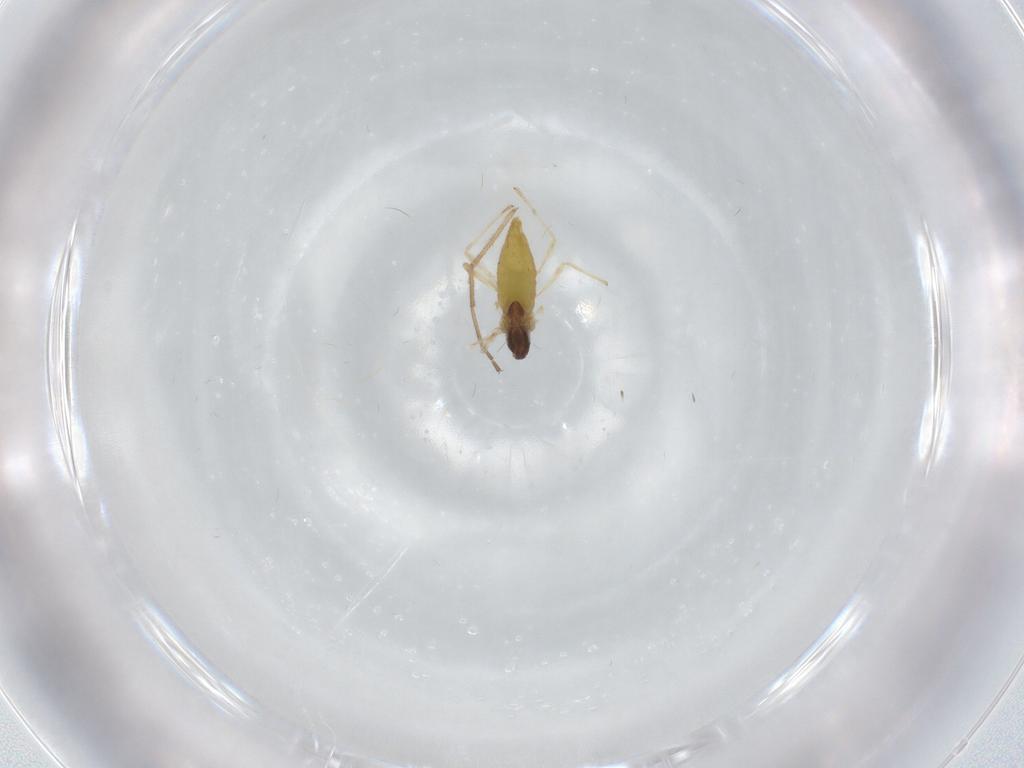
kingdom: Animalia
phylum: Arthropoda
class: Insecta
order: Diptera
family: Chironomidae
